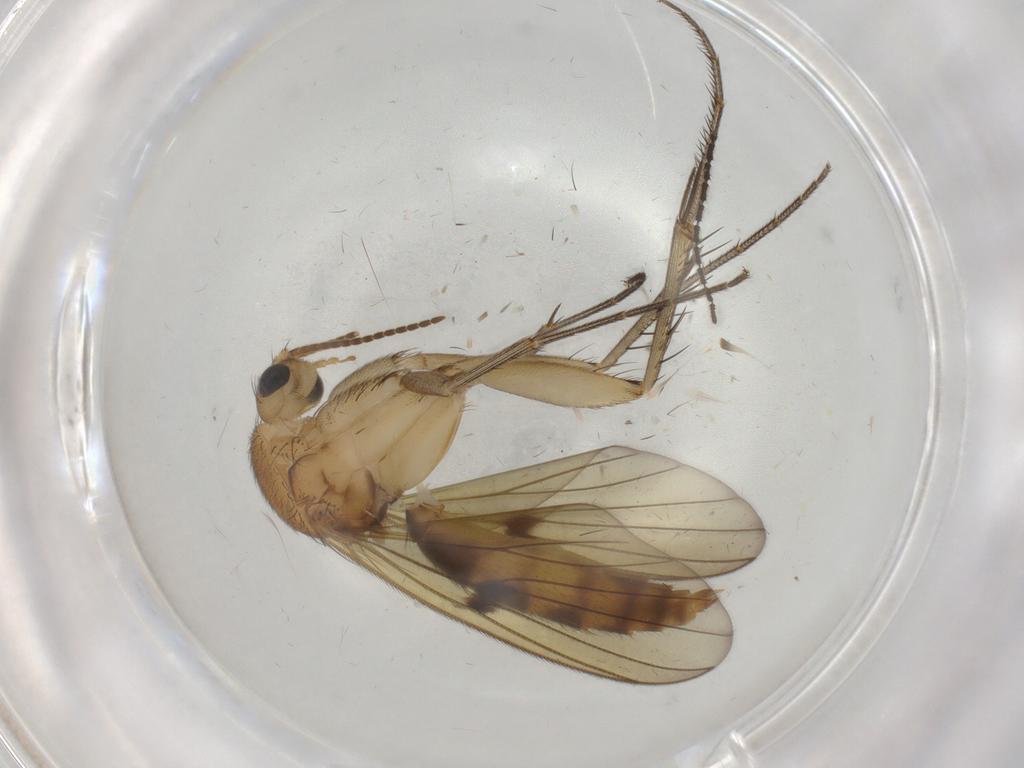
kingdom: Animalia
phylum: Arthropoda
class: Insecta
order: Diptera
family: Mycetophilidae
